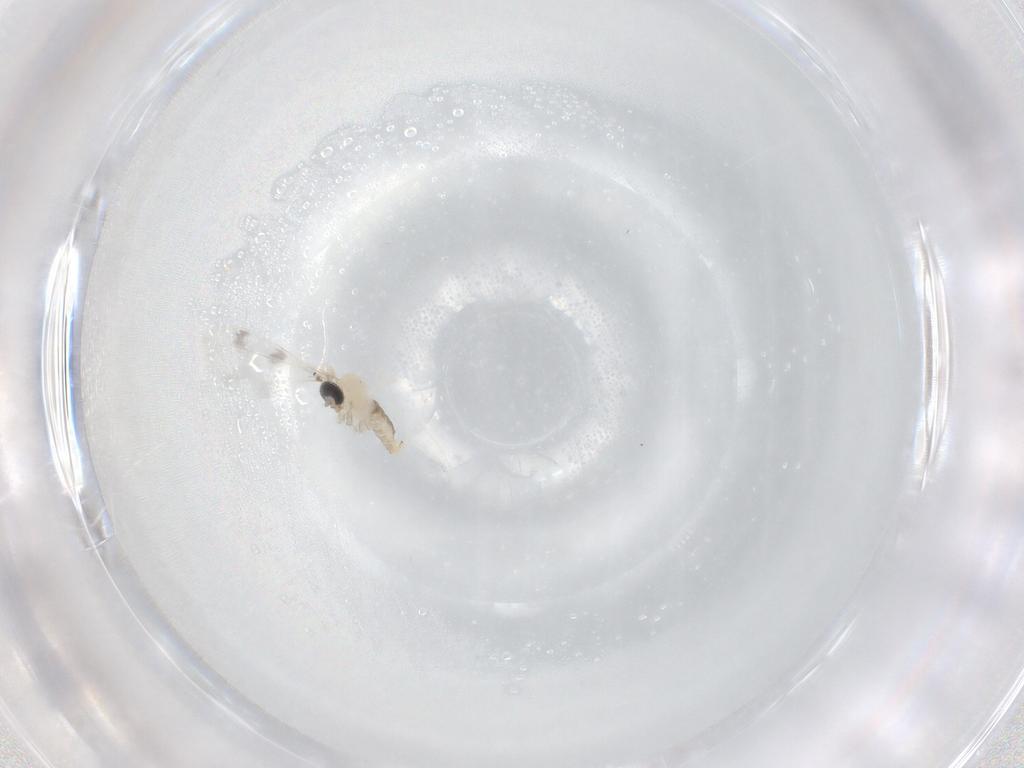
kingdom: Animalia
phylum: Arthropoda
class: Insecta
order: Diptera
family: Cecidomyiidae
